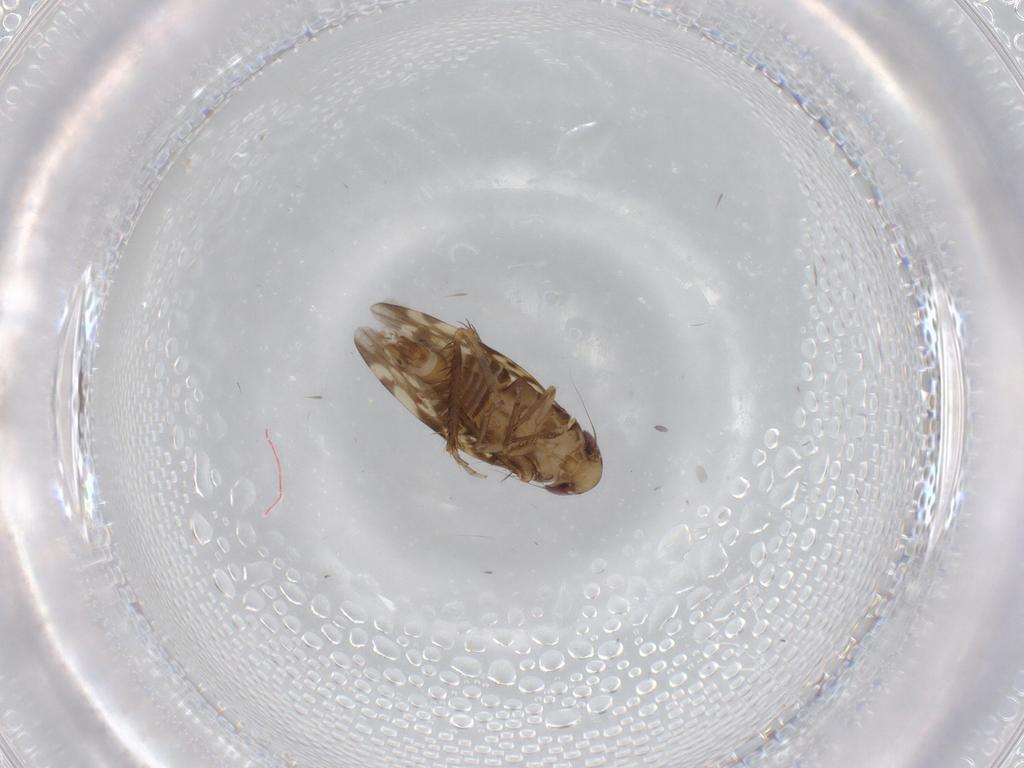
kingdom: Animalia
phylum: Arthropoda
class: Insecta
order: Hemiptera
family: Cicadellidae
